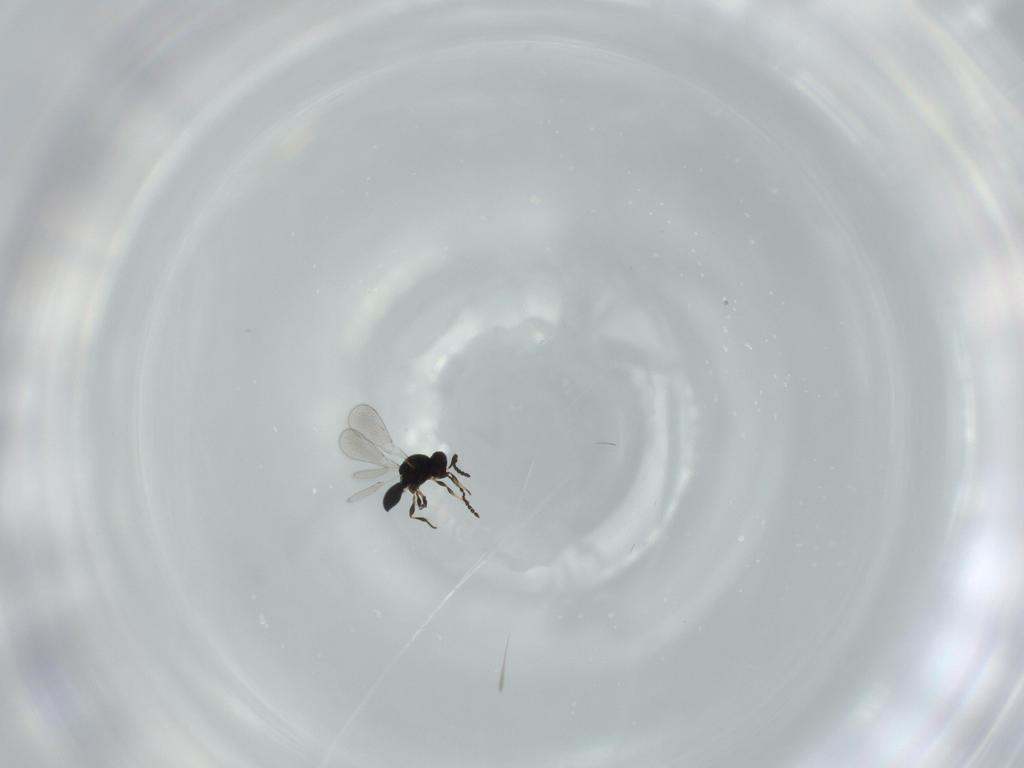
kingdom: Animalia
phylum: Arthropoda
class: Insecta
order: Hymenoptera
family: Platygastridae
